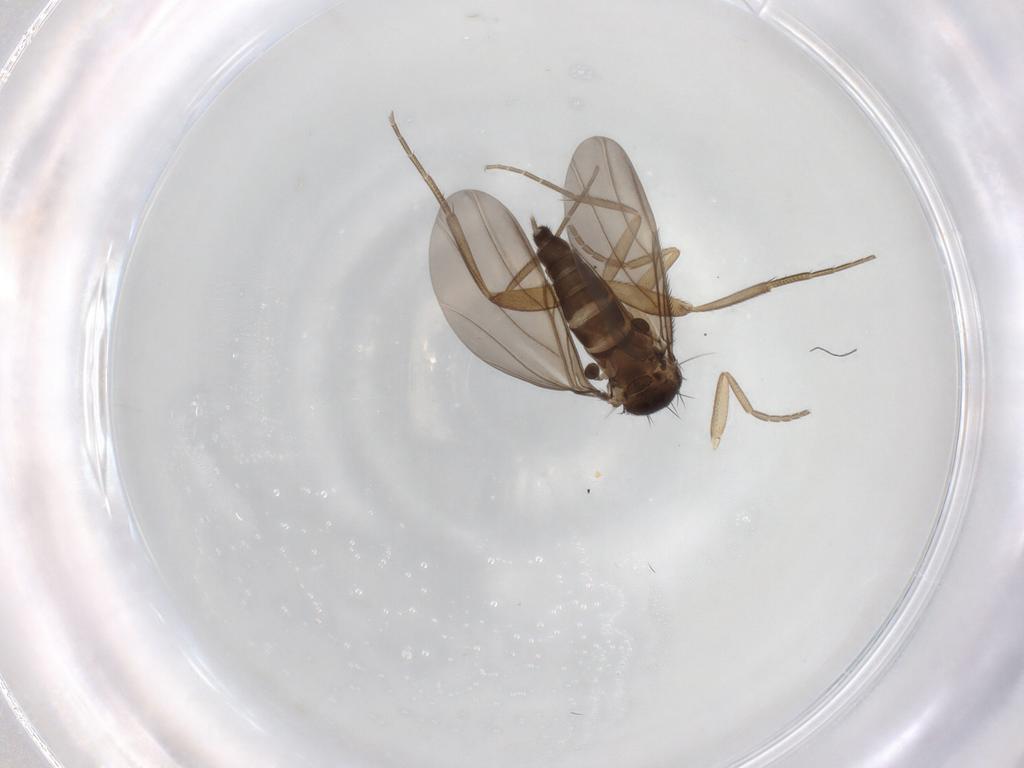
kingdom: Animalia
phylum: Arthropoda
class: Insecta
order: Diptera
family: Phoridae
